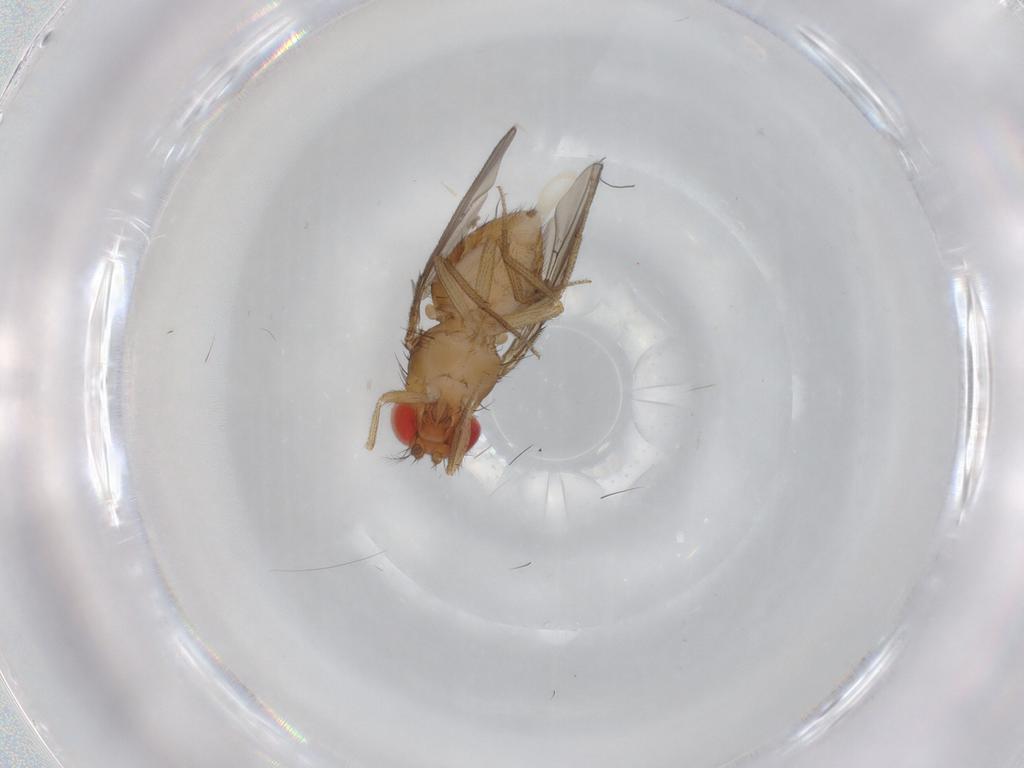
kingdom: Animalia
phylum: Arthropoda
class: Insecta
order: Diptera
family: Drosophilidae
